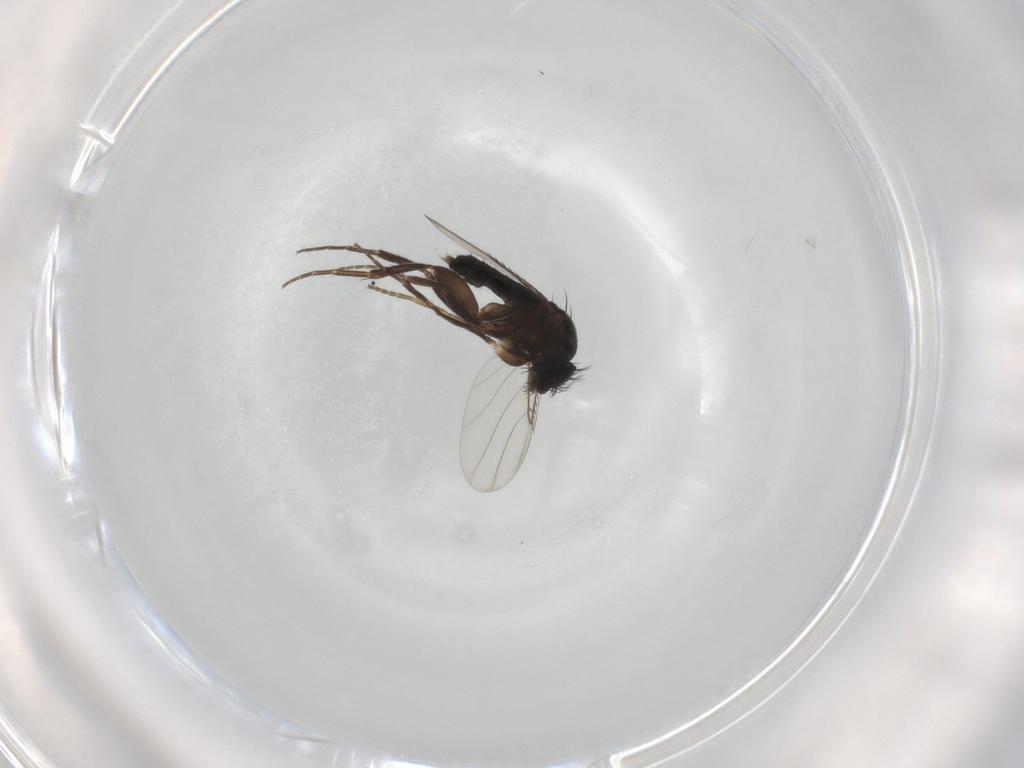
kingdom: Animalia
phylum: Arthropoda
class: Insecta
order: Diptera
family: Phoridae
